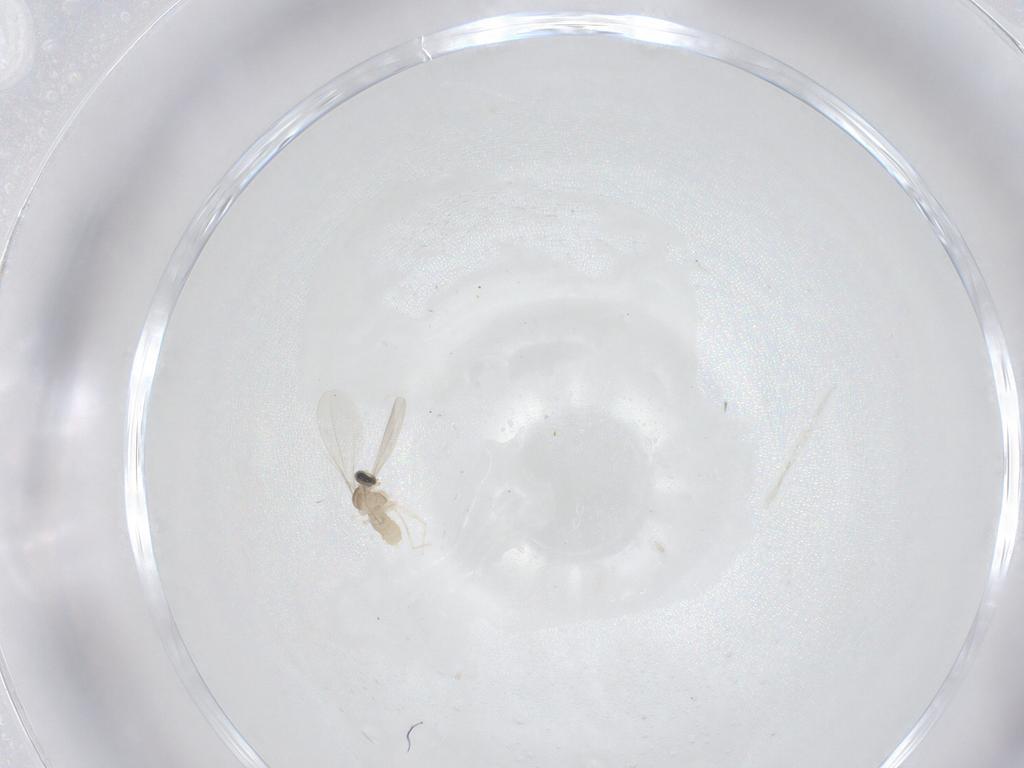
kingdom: Animalia
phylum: Arthropoda
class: Insecta
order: Diptera
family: Cecidomyiidae
